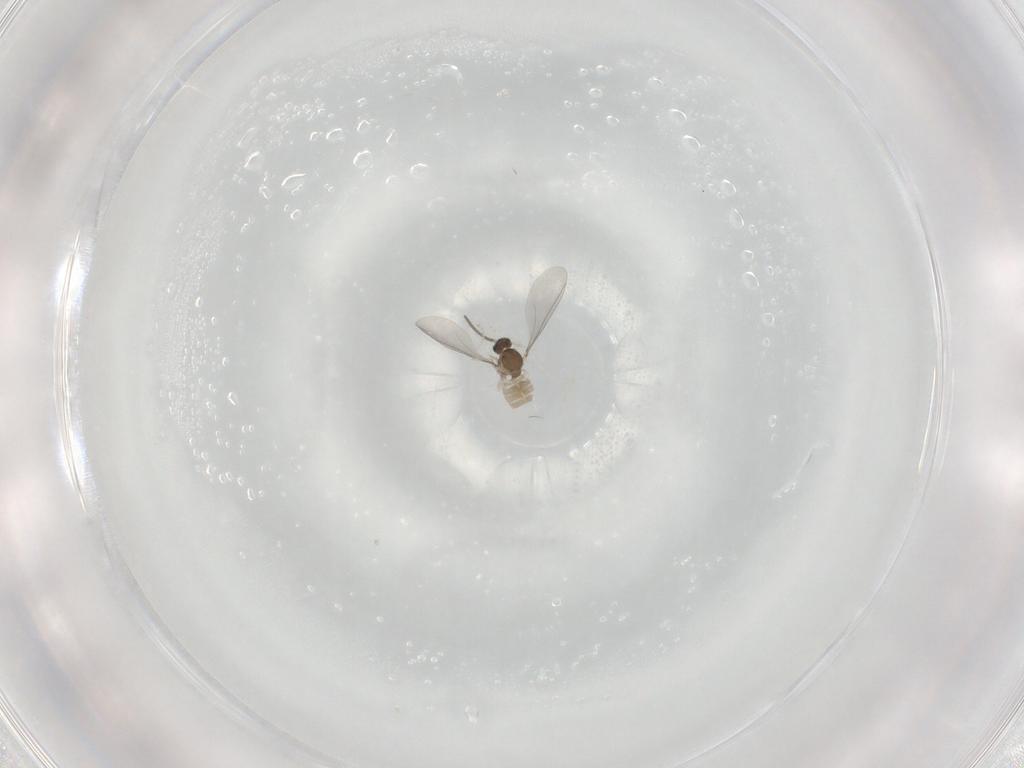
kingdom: Animalia
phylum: Arthropoda
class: Insecta
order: Diptera
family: Cecidomyiidae
